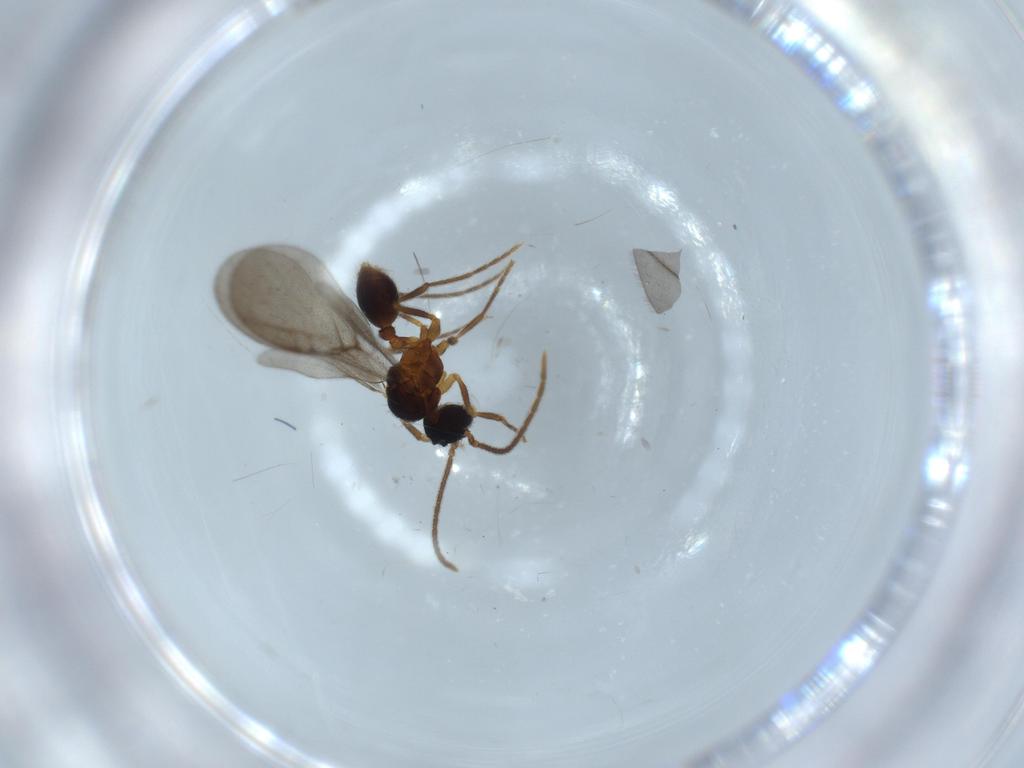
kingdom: Animalia
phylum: Arthropoda
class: Insecta
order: Hymenoptera
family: Formicidae
